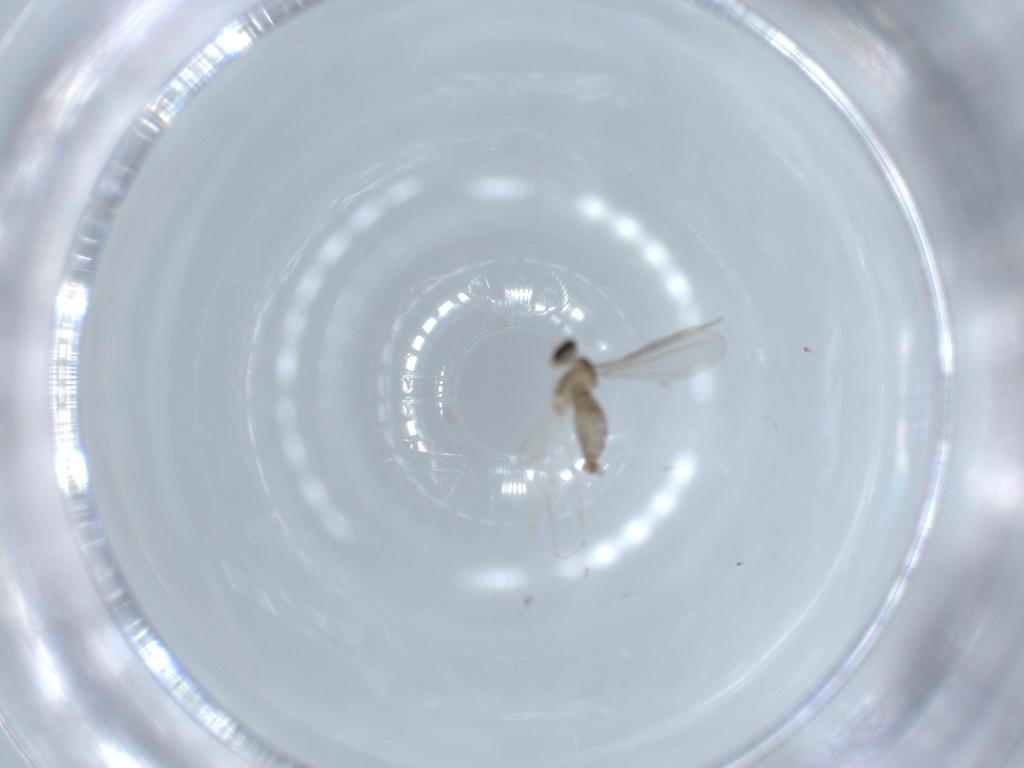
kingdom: Animalia
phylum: Arthropoda
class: Insecta
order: Diptera
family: Cecidomyiidae
